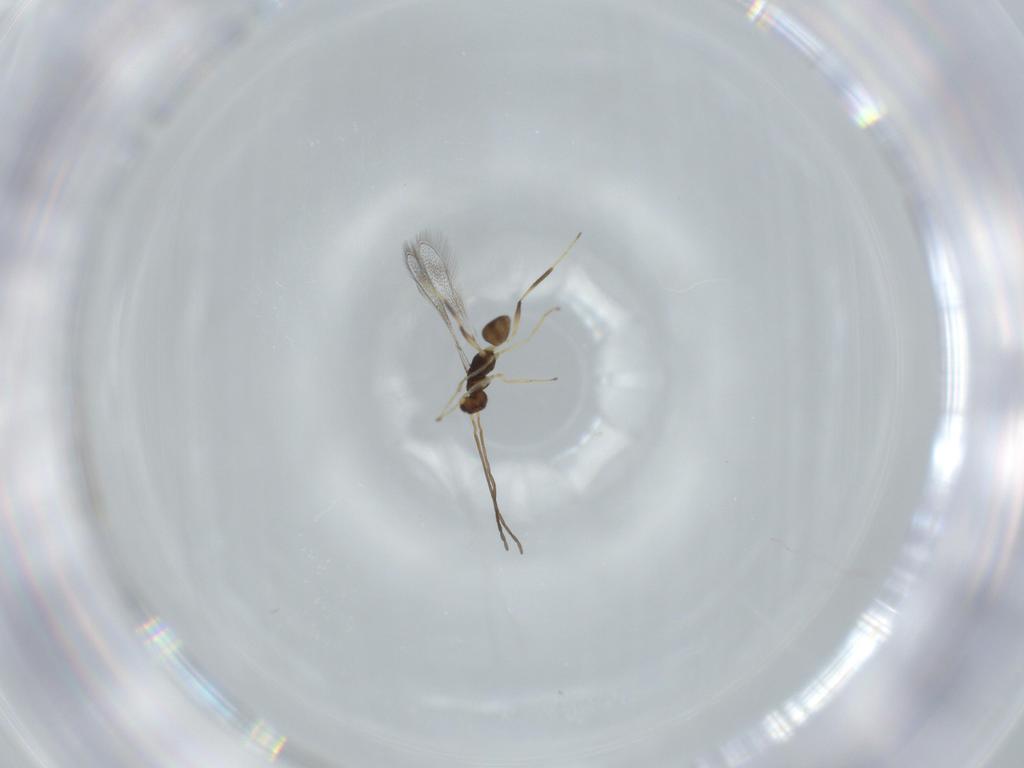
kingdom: Animalia
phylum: Arthropoda
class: Insecta
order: Hymenoptera
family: Mymaridae
